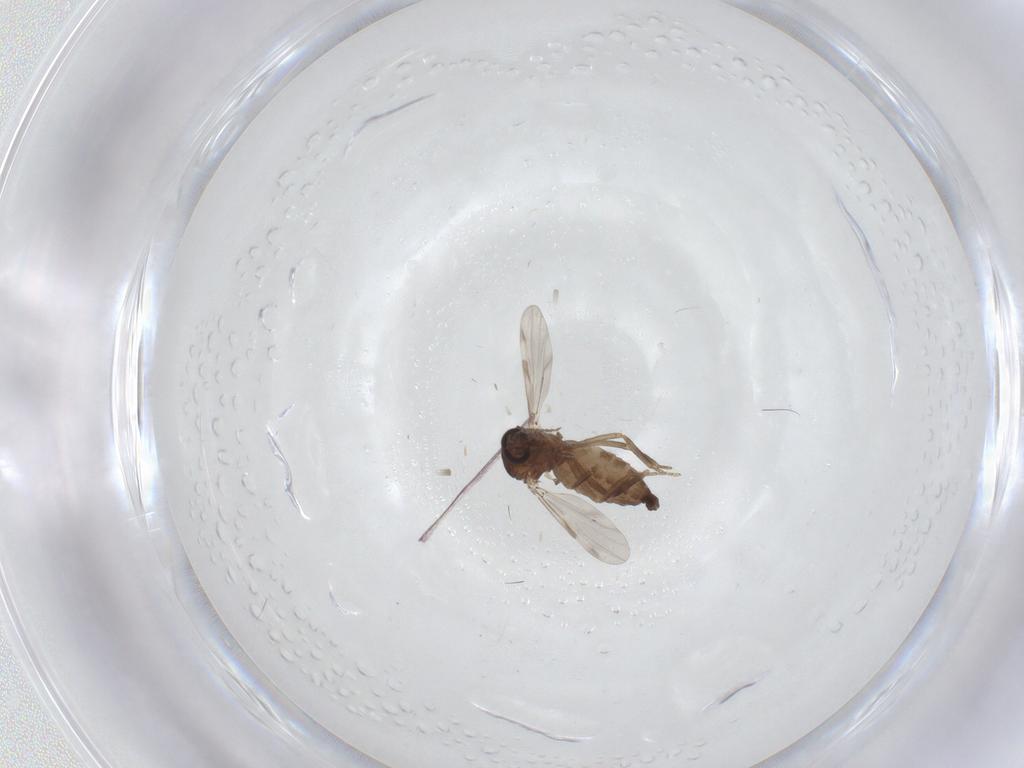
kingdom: Animalia
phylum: Arthropoda
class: Insecta
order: Diptera
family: Ceratopogonidae
